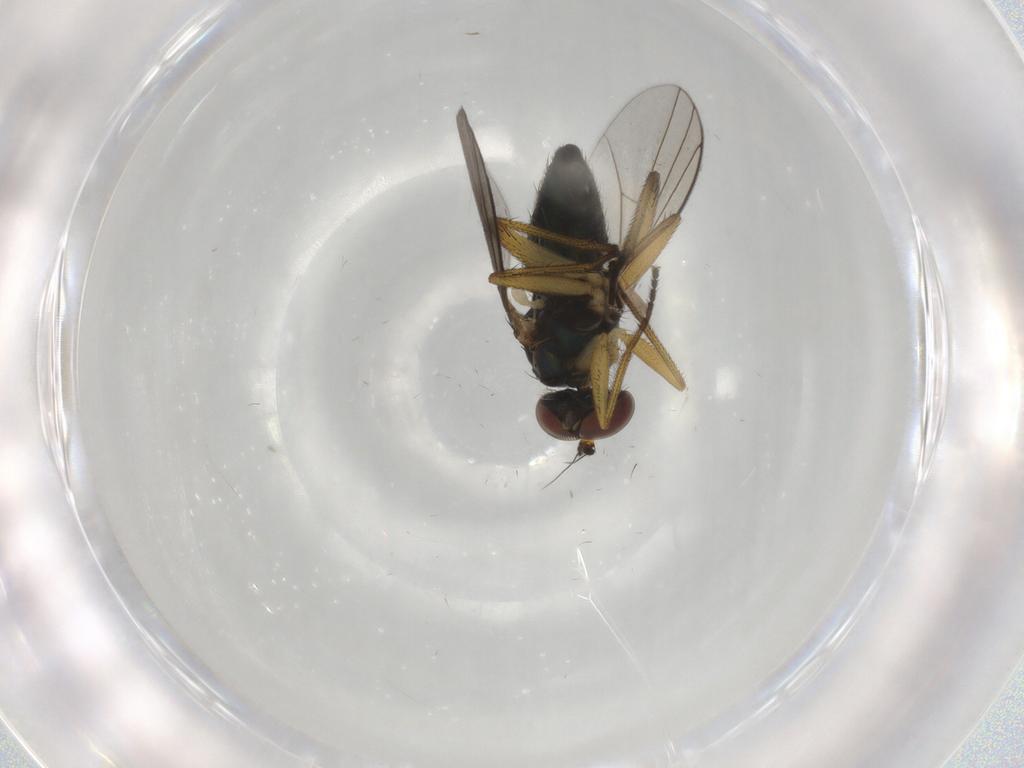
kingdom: Animalia
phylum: Arthropoda
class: Insecta
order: Diptera
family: Dolichopodidae
